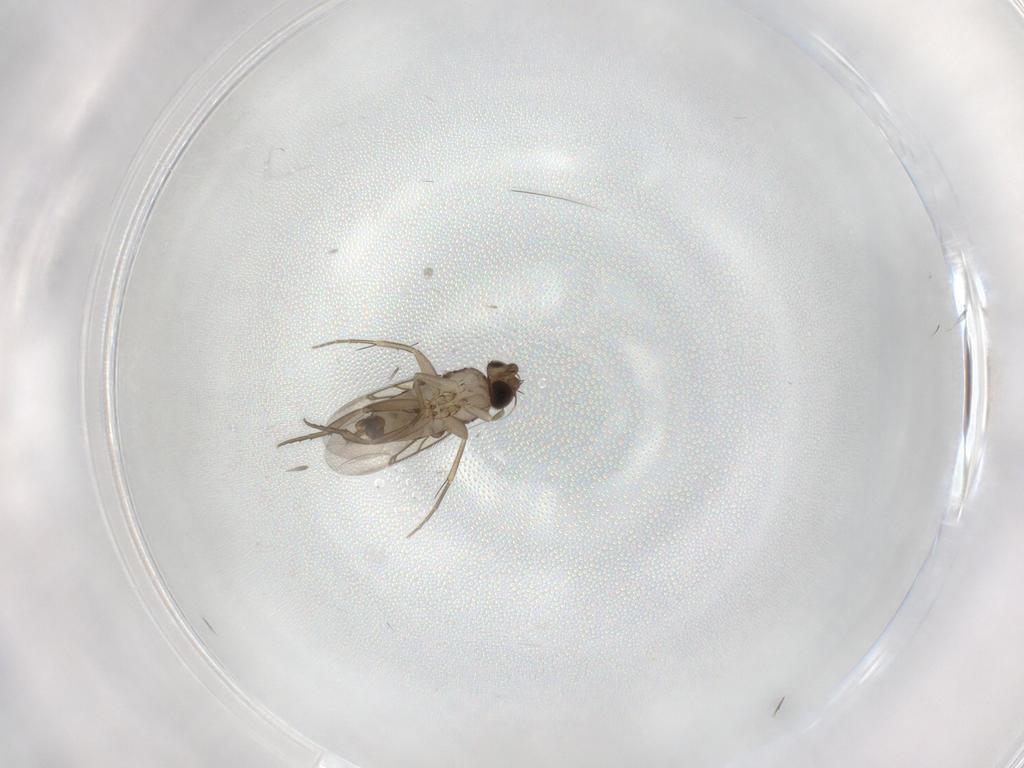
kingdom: Animalia
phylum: Arthropoda
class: Insecta
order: Diptera
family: Phoridae
